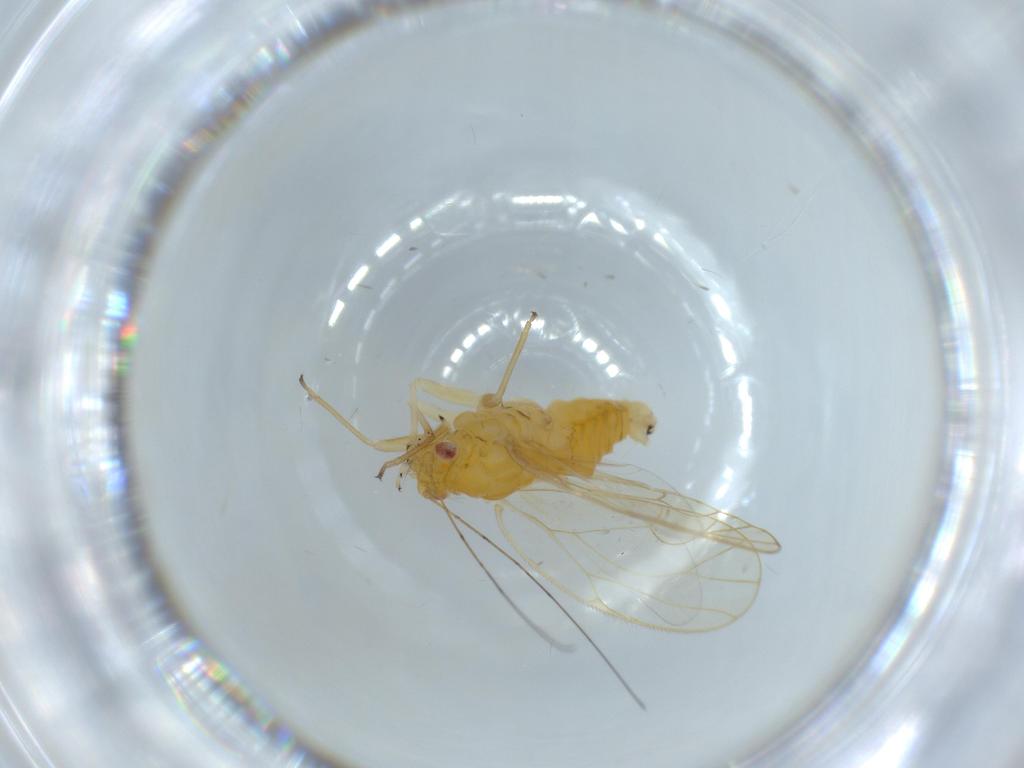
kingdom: Animalia
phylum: Arthropoda
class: Insecta
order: Hemiptera
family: Psyllidae
